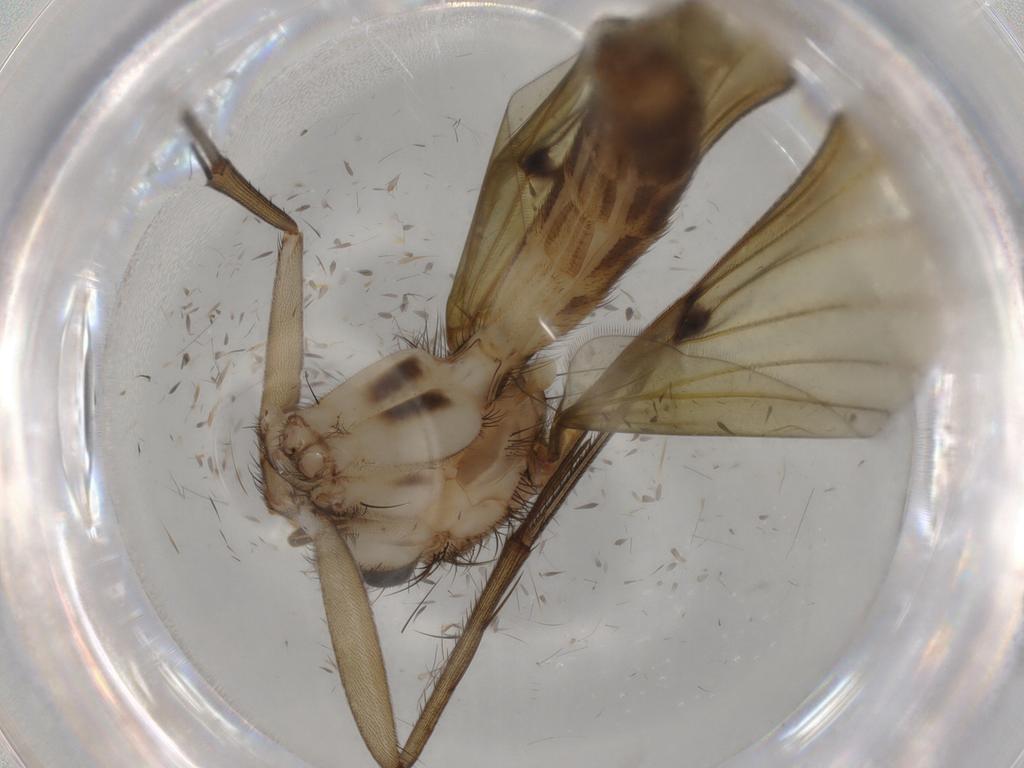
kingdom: Animalia
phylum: Arthropoda
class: Insecta
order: Diptera
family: Mycetophilidae
